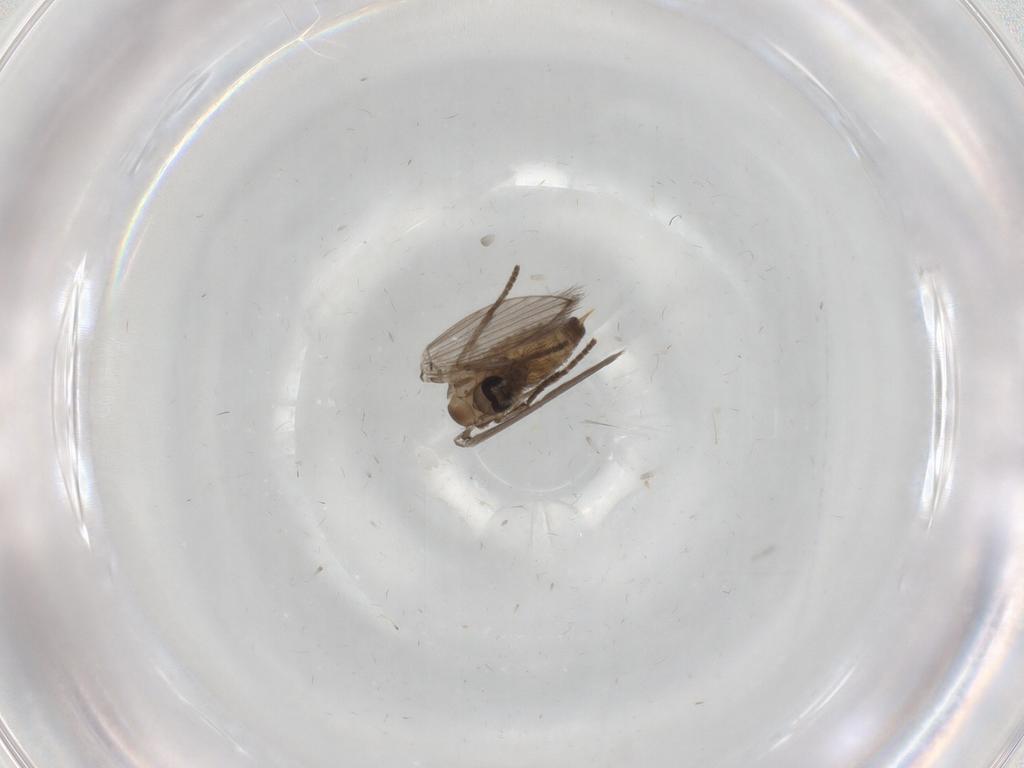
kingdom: Animalia
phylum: Arthropoda
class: Insecta
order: Diptera
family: Psychodidae
